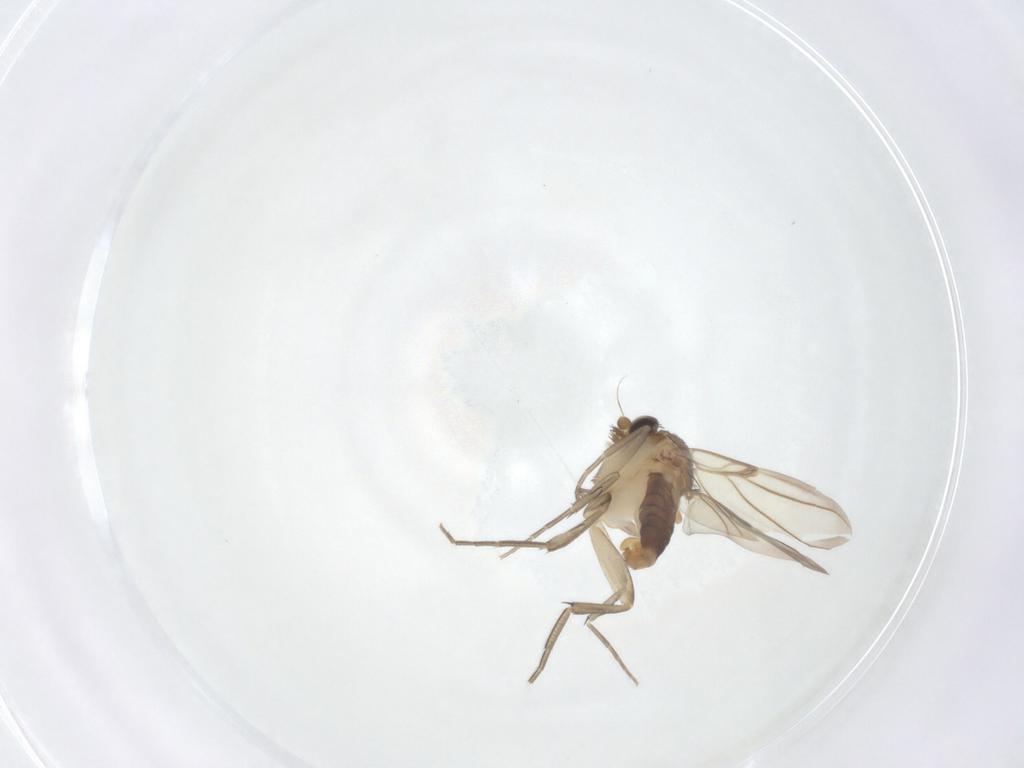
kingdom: Animalia
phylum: Arthropoda
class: Insecta
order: Diptera
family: Phoridae
